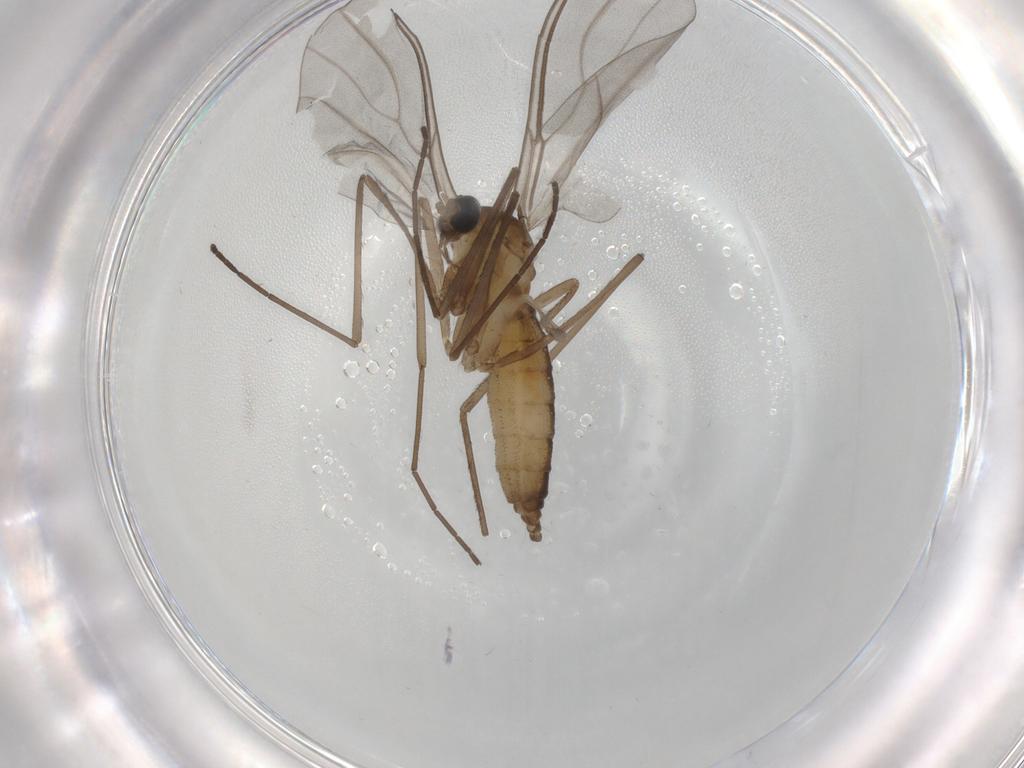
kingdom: Animalia
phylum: Arthropoda
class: Insecta
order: Diptera
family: Cecidomyiidae
